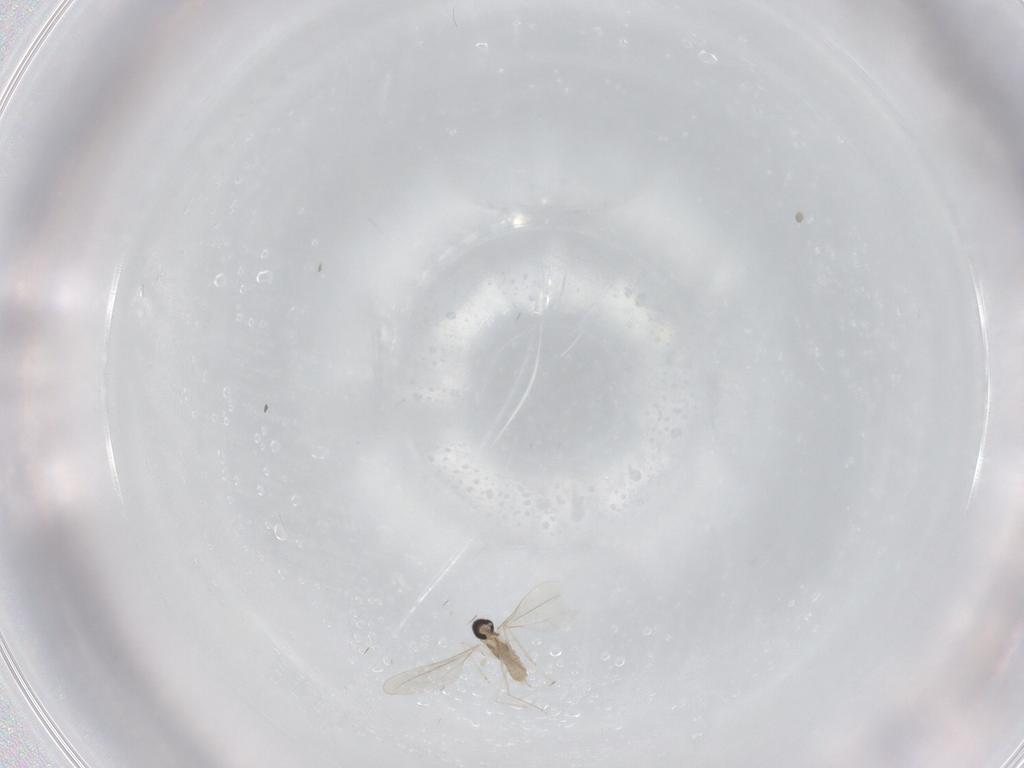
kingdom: Animalia
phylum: Arthropoda
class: Insecta
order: Diptera
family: Cecidomyiidae
